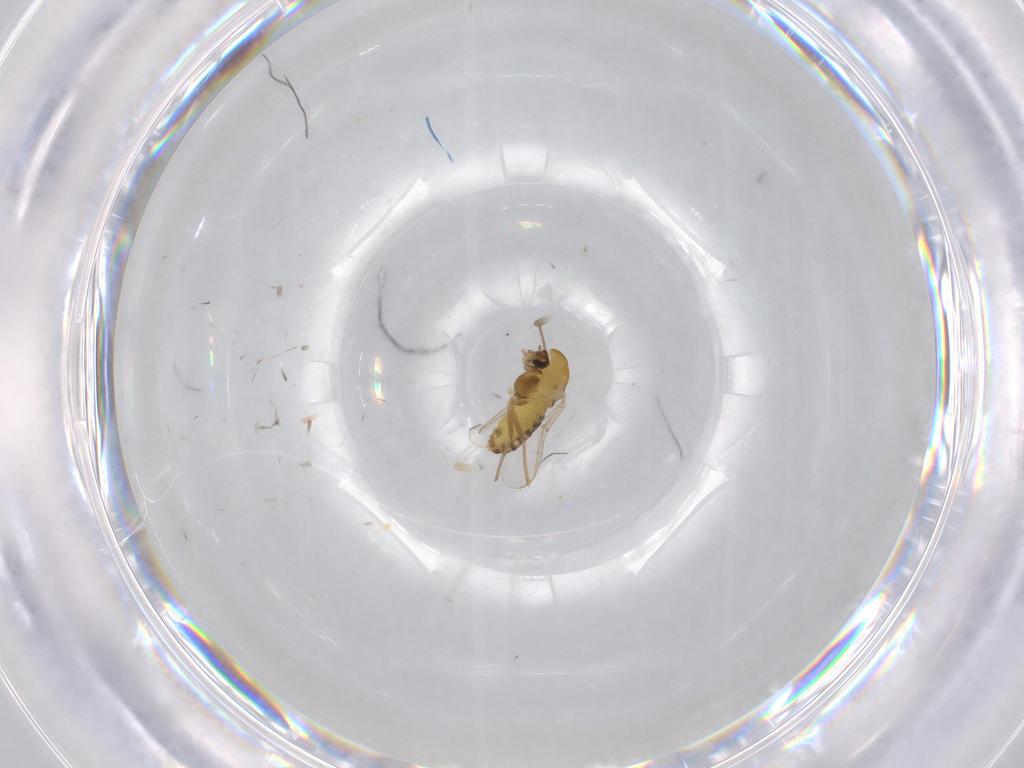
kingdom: Animalia
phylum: Arthropoda
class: Insecta
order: Diptera
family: Chironomidae
